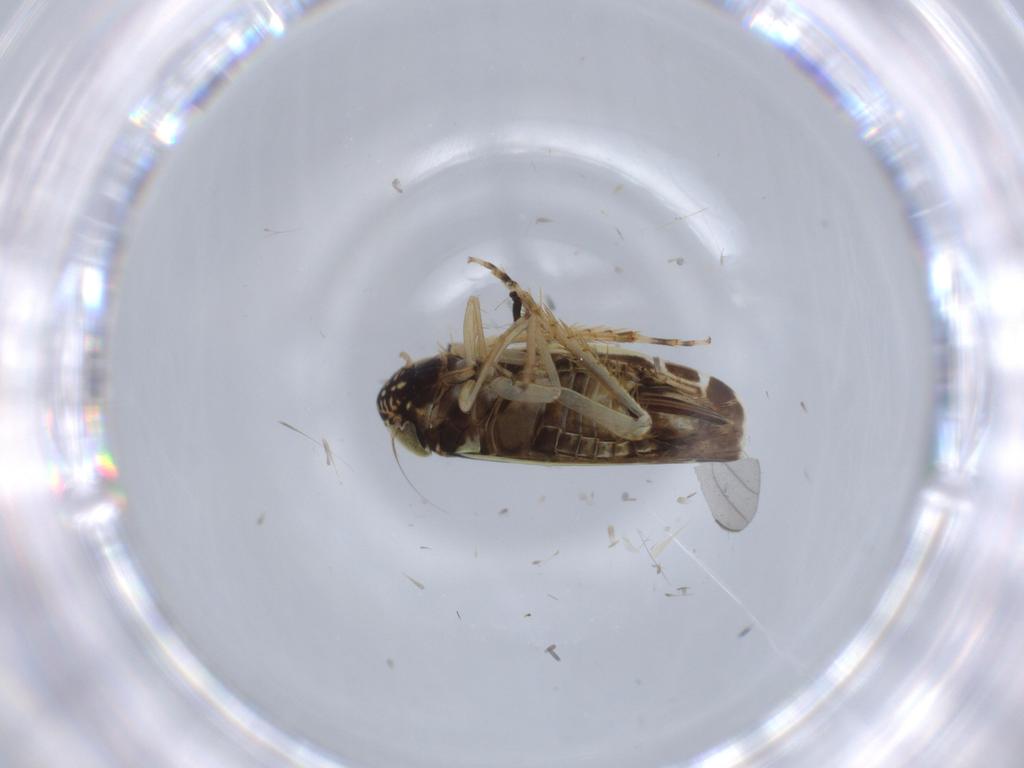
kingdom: Animalia
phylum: Arthropoda
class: Insecta
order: Hemiptera
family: Cicadellidae
